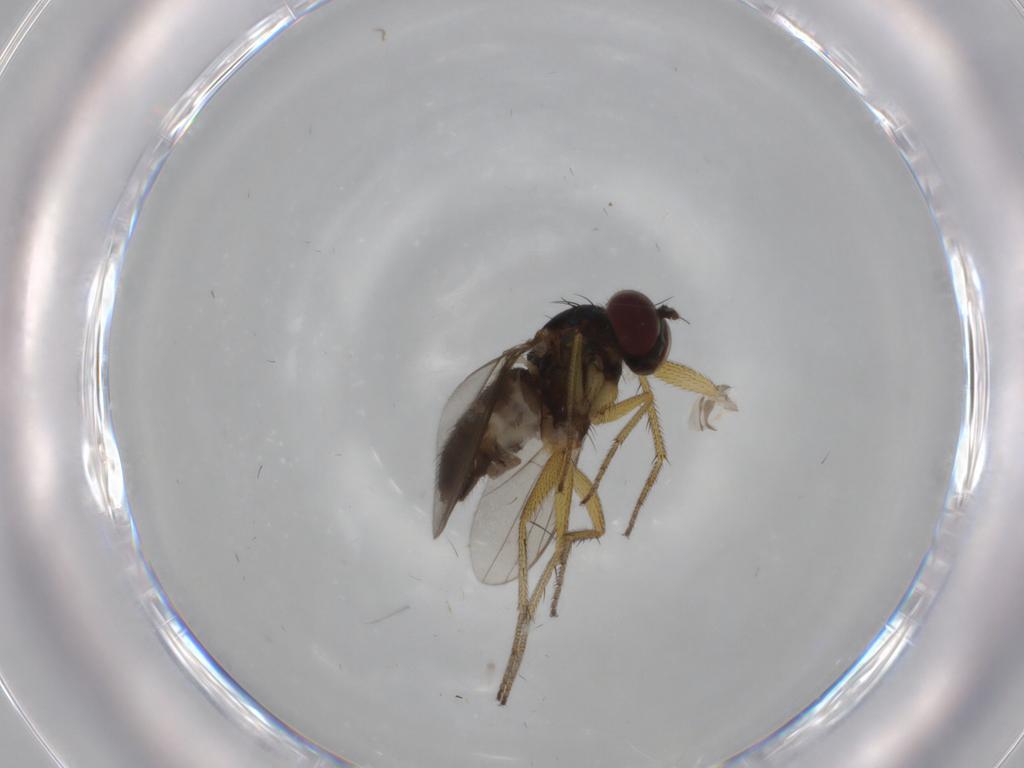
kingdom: Animalia
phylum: Arthropoda
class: Insecta
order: Diptera
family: Dolichopodidae
